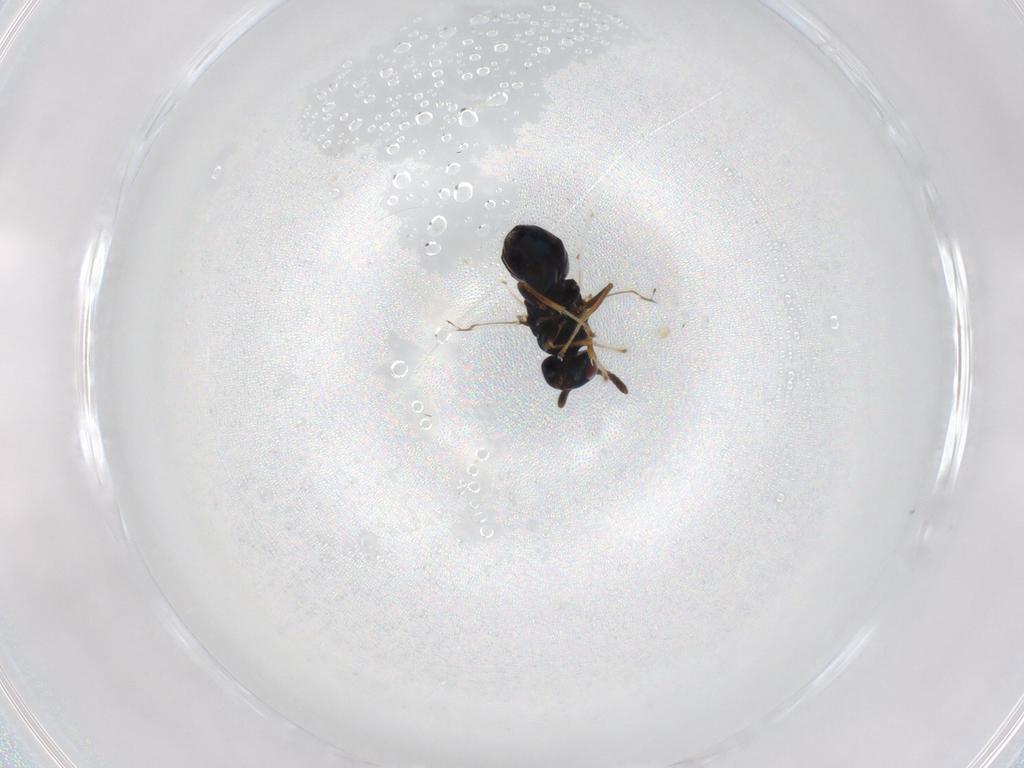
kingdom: Animalia
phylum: Arthropoda
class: Insecta
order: Hymenoptera
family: Pteromalidae
